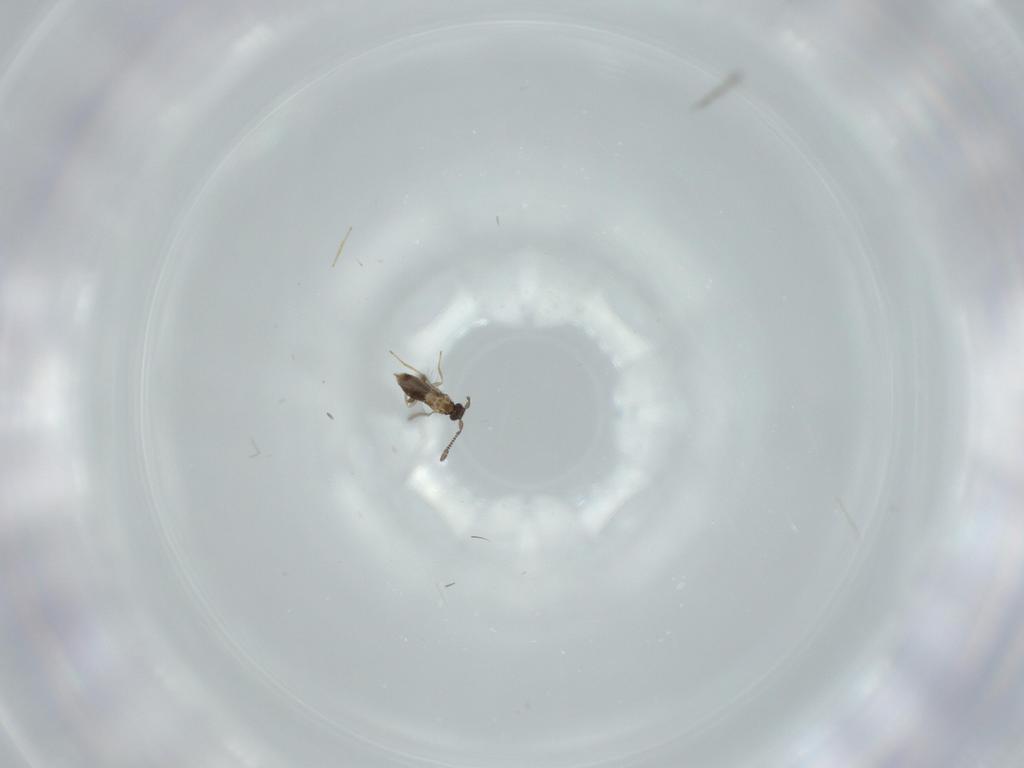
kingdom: Animalia
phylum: Arthropoda
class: Insecta
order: Hymenoptera
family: Mymaridae
